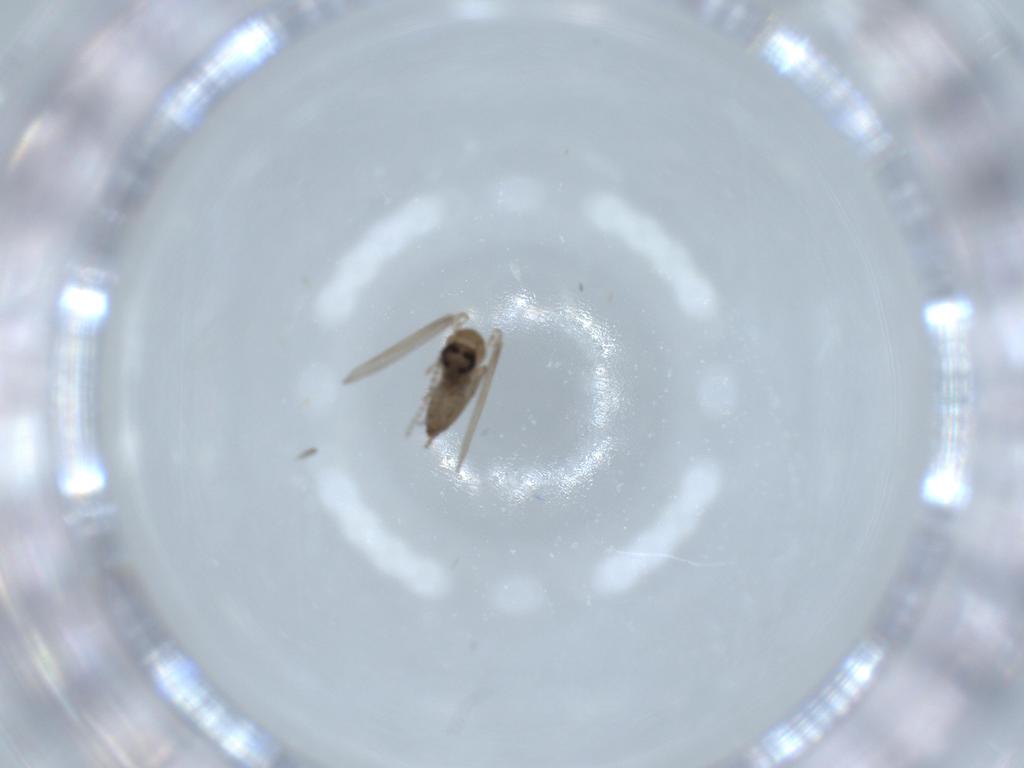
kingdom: Animalia
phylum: Arthropoda
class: Insecta
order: Diptera
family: Psychodidae
